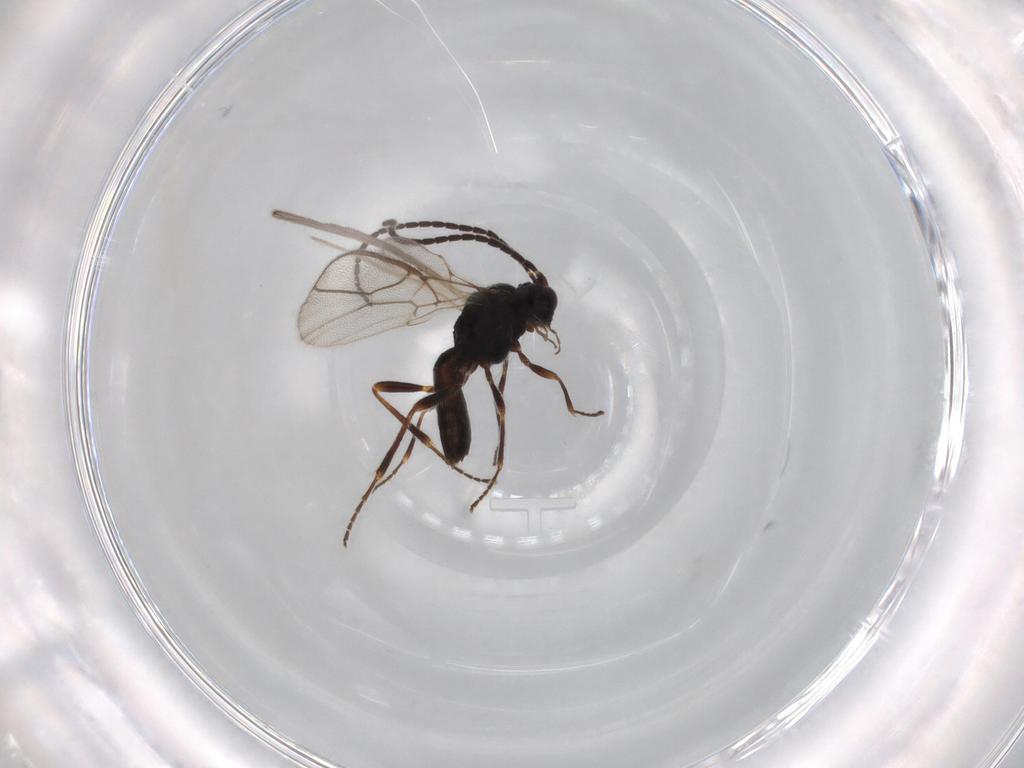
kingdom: Animalia
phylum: Arthropoda
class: Insecta
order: Hymenoptera
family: Braconidae
